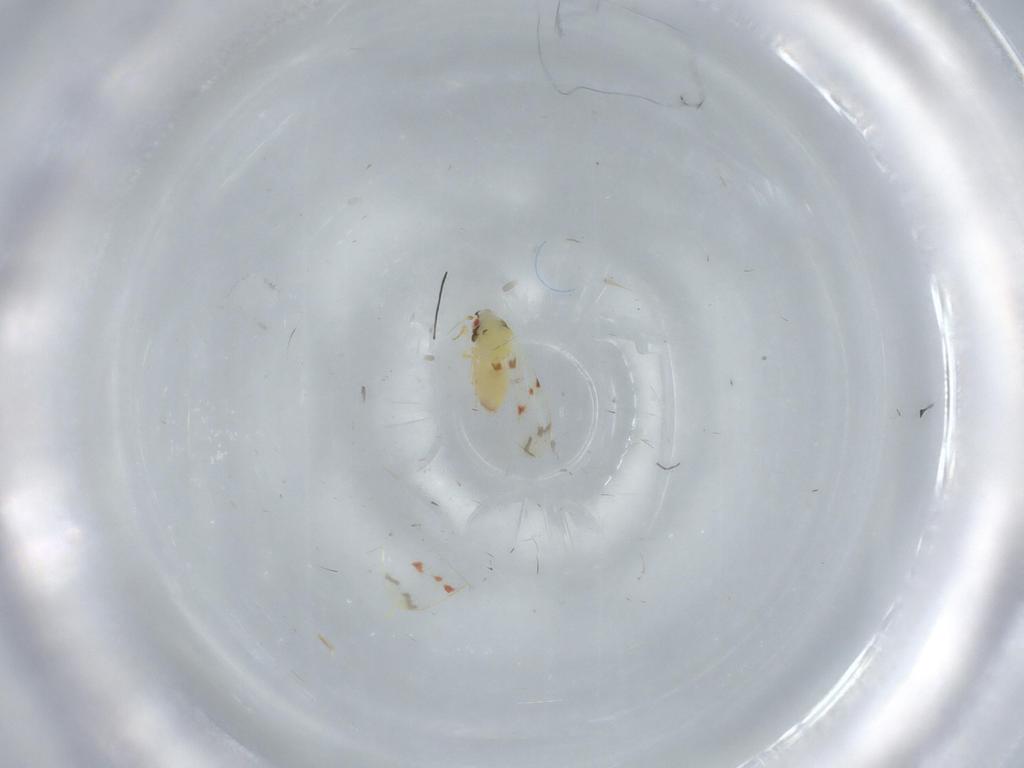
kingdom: Animalia
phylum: Arthropoda
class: Insecta
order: Hemiptera
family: Aleyrodidae
